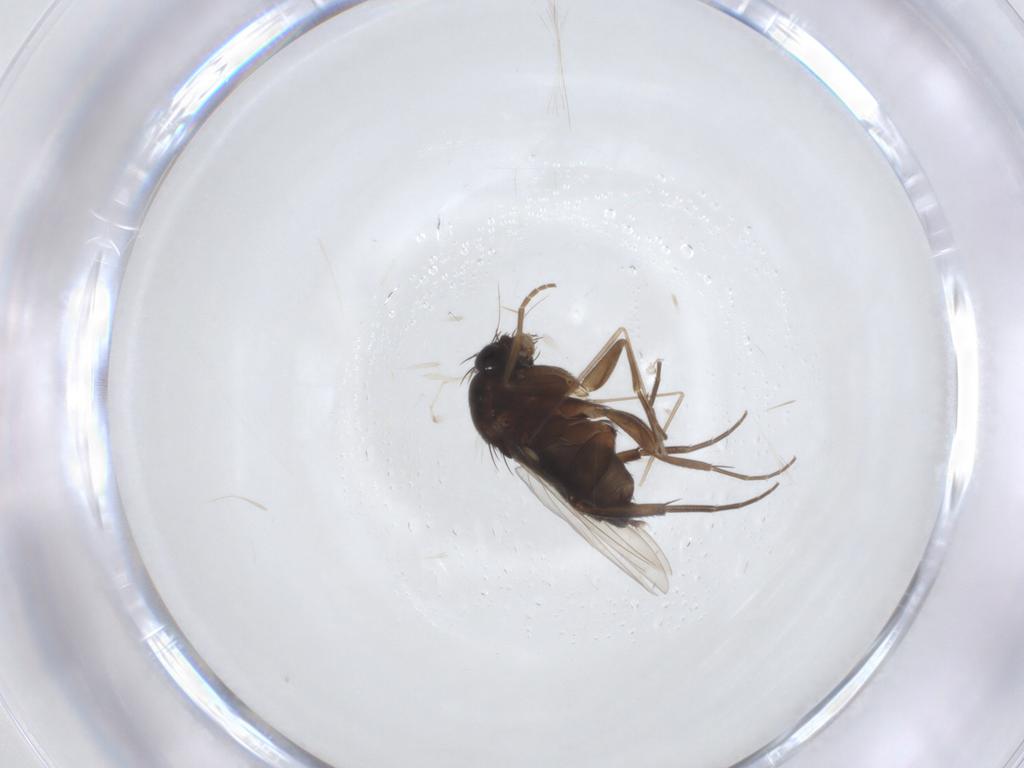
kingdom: Animalia
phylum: Arthropoda
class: Insecta
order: Diptera
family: Phoridae
